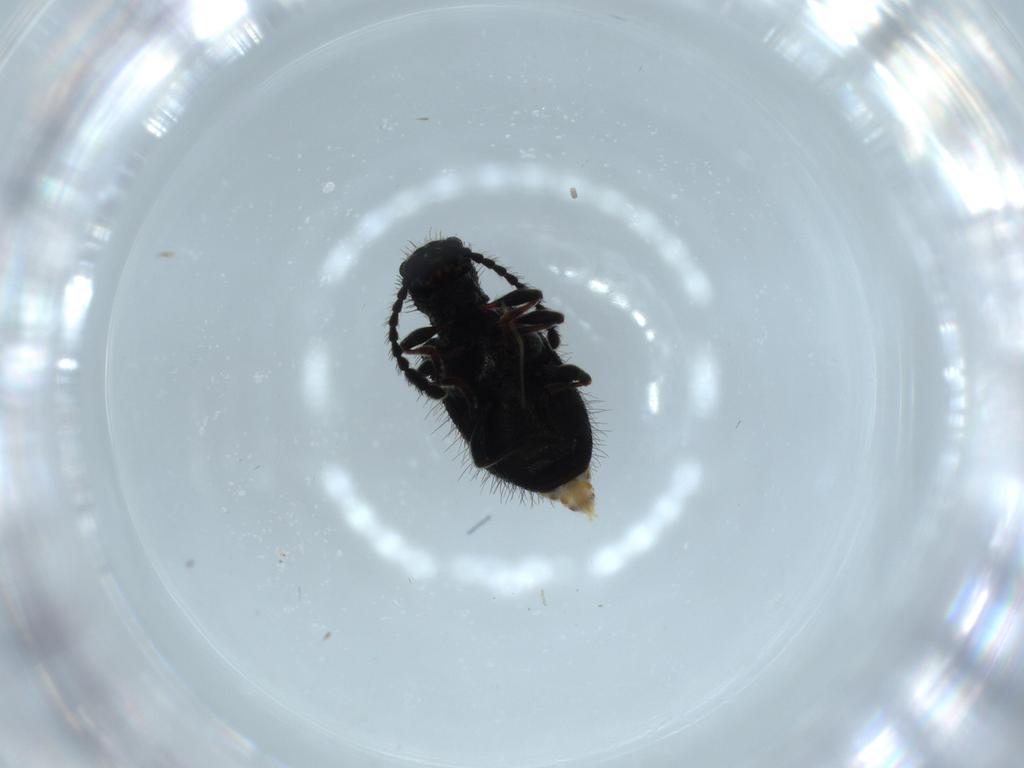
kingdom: Animalia
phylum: Arthropoda
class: Insecta
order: Coleoptera
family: Ptinidae
